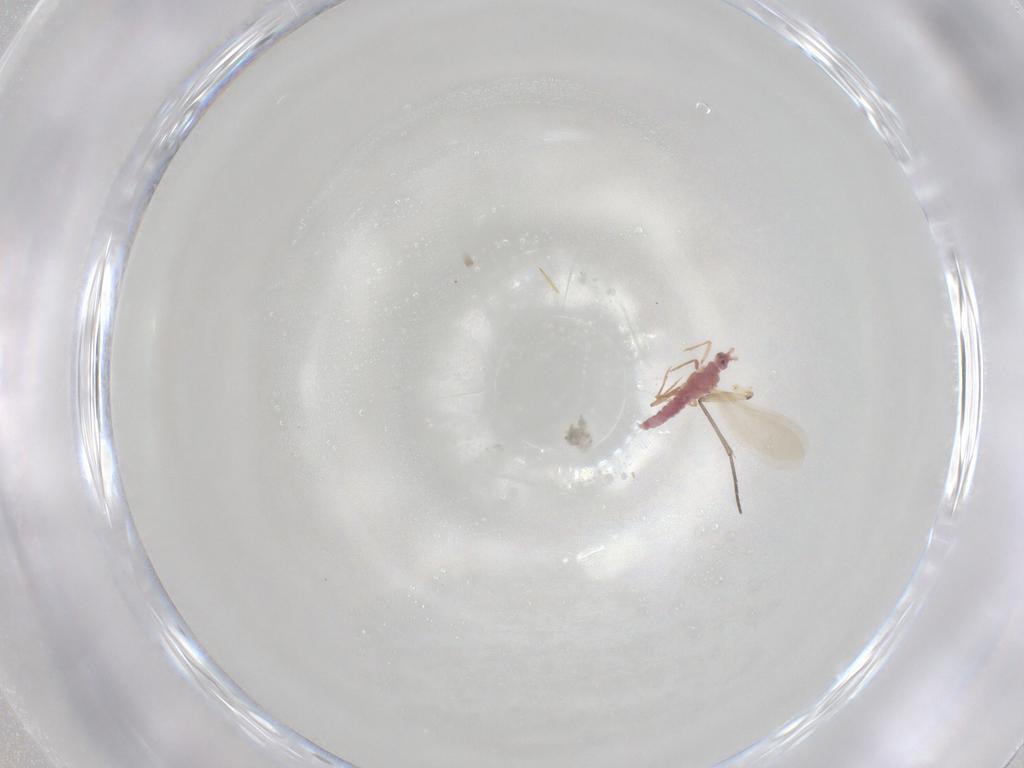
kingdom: Animalia
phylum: Arthropoda
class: Insecta
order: Diptera
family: Sciaridae
